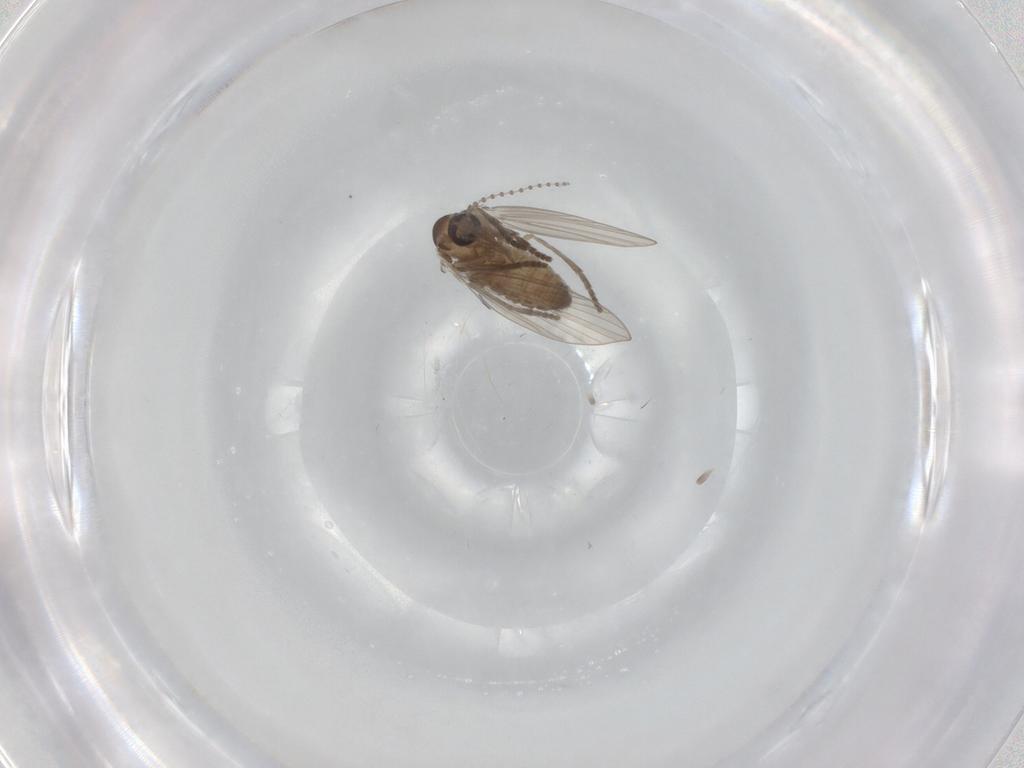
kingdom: Animalia
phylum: Arthropoda
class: Insecta
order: Diptera
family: Psychodidae
